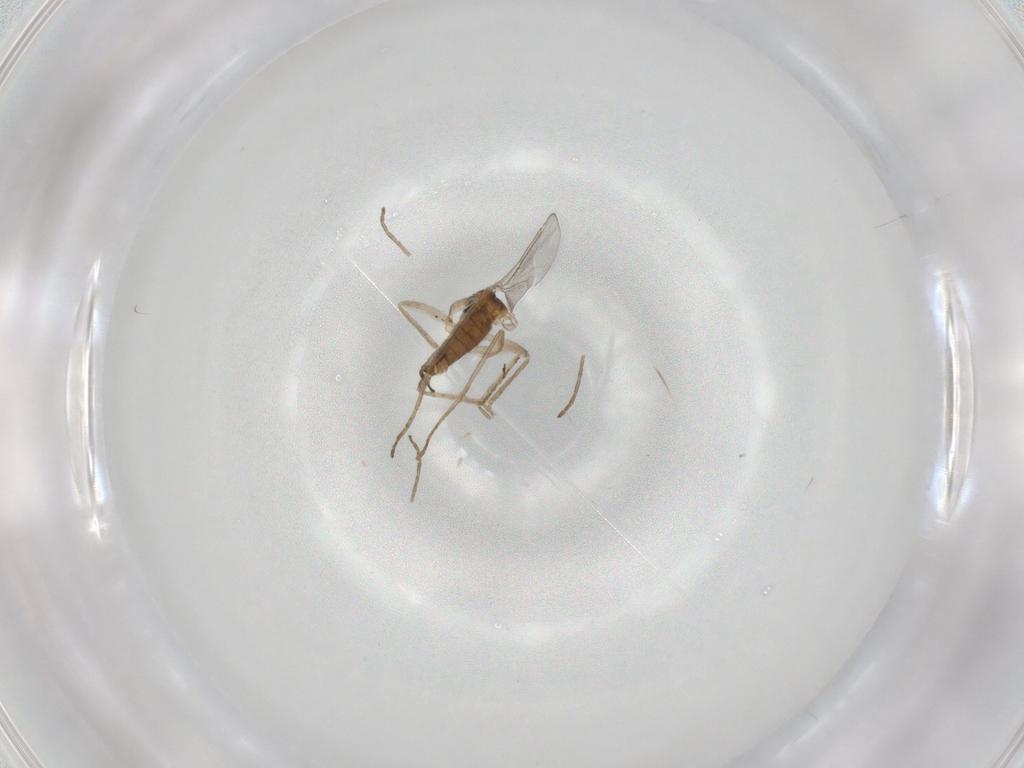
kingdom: Animalia
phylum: Arthropoda
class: Insecta
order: Diptera
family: Cecidomyiidae
